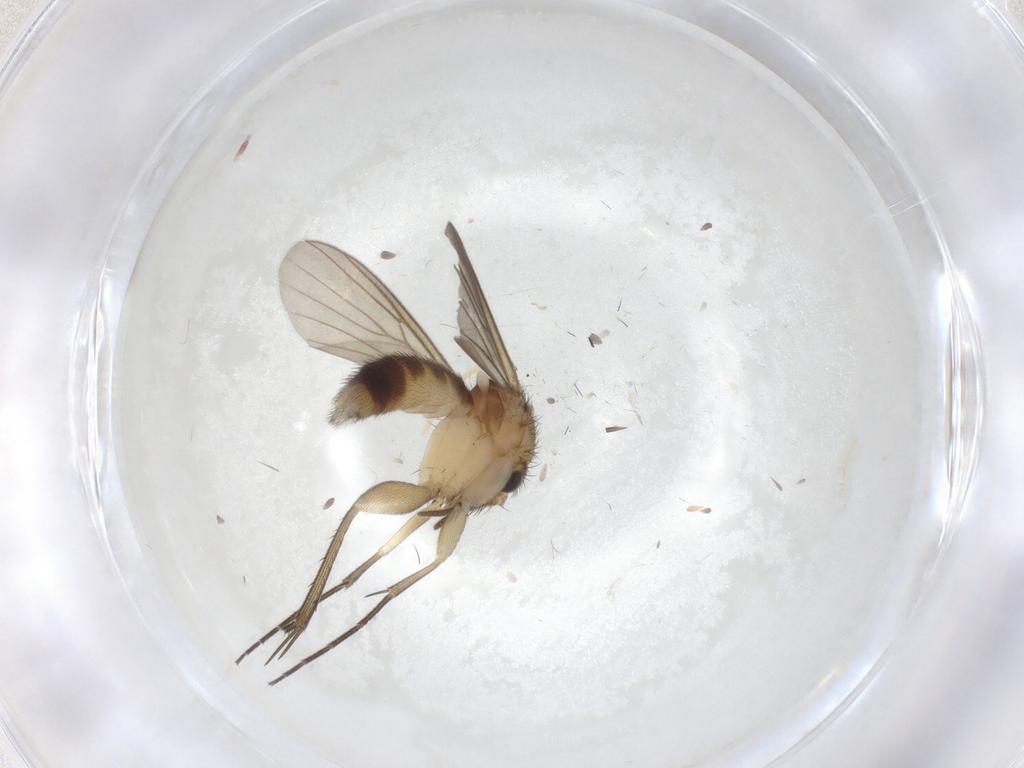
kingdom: Animalia
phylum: Arthropoda
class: Insecta
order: Diptera
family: Mycetophilidae
